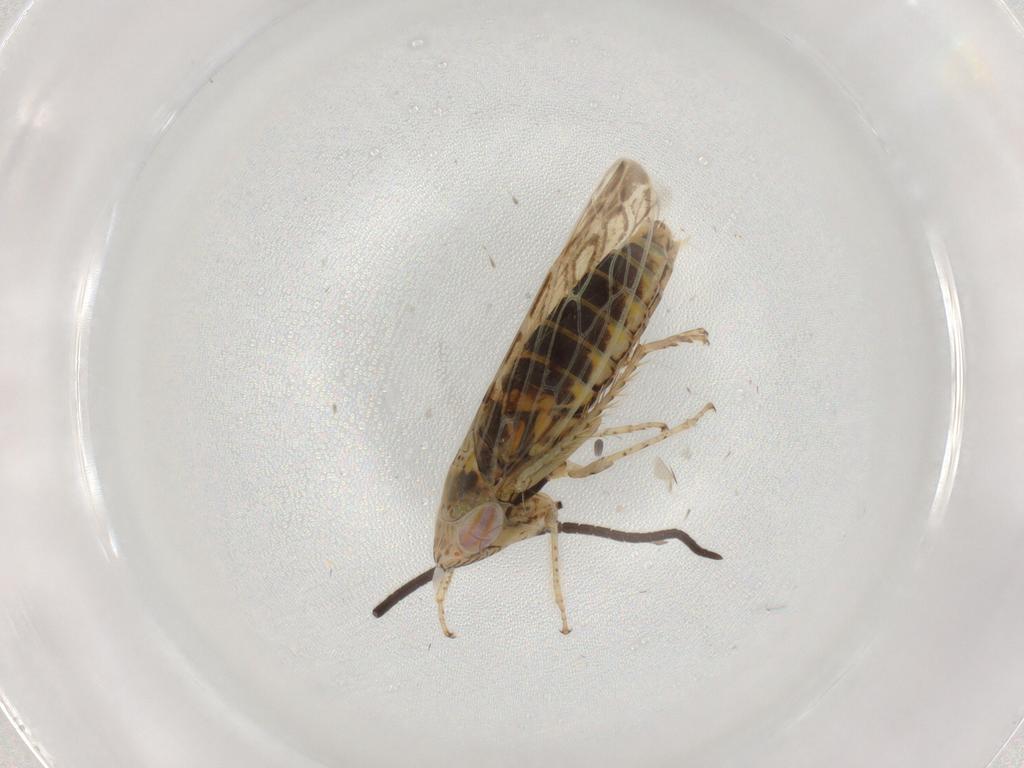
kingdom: Animalia
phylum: Arthropoda
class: Insecta
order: Hemiptera
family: Cicadellidae
